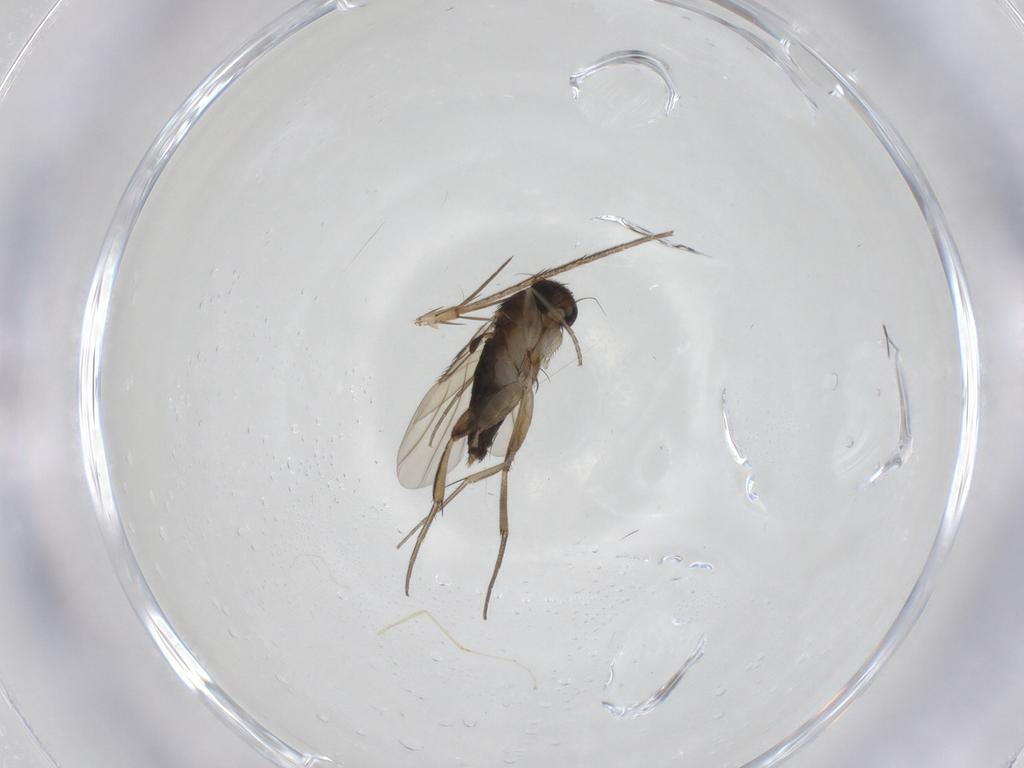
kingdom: Animalia
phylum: Arthropoda
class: Insecta
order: Diptera
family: Phoridae
